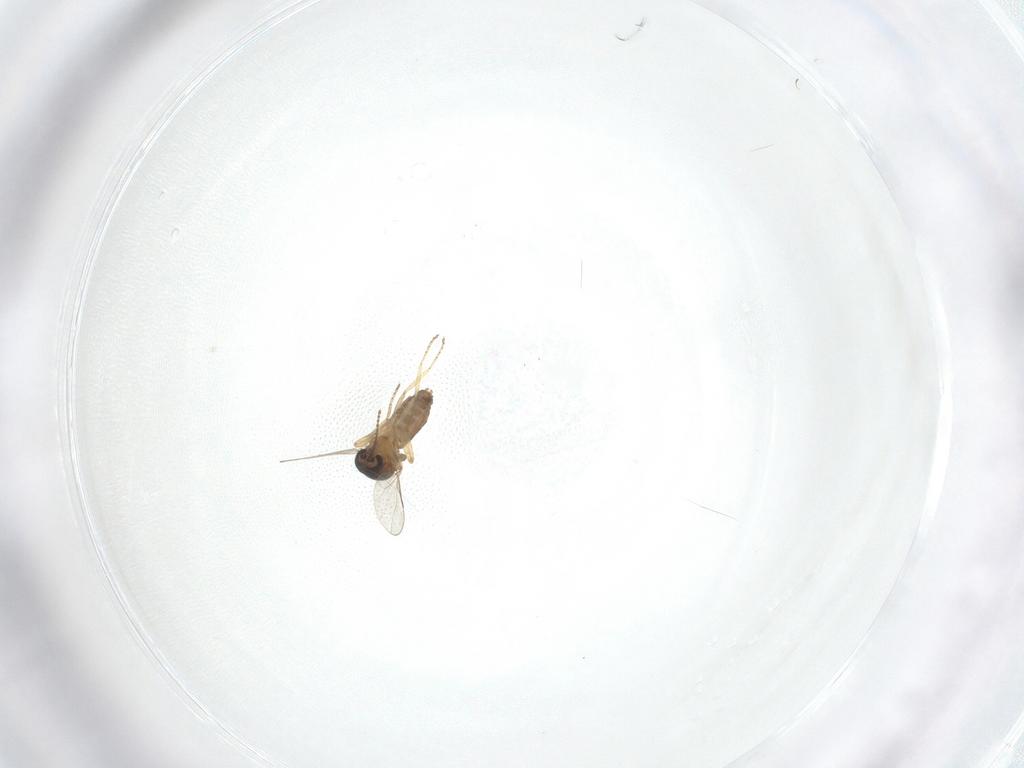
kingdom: Animalia
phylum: Arthropoda
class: Insecta
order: Diptera
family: Ceratopogonidae
